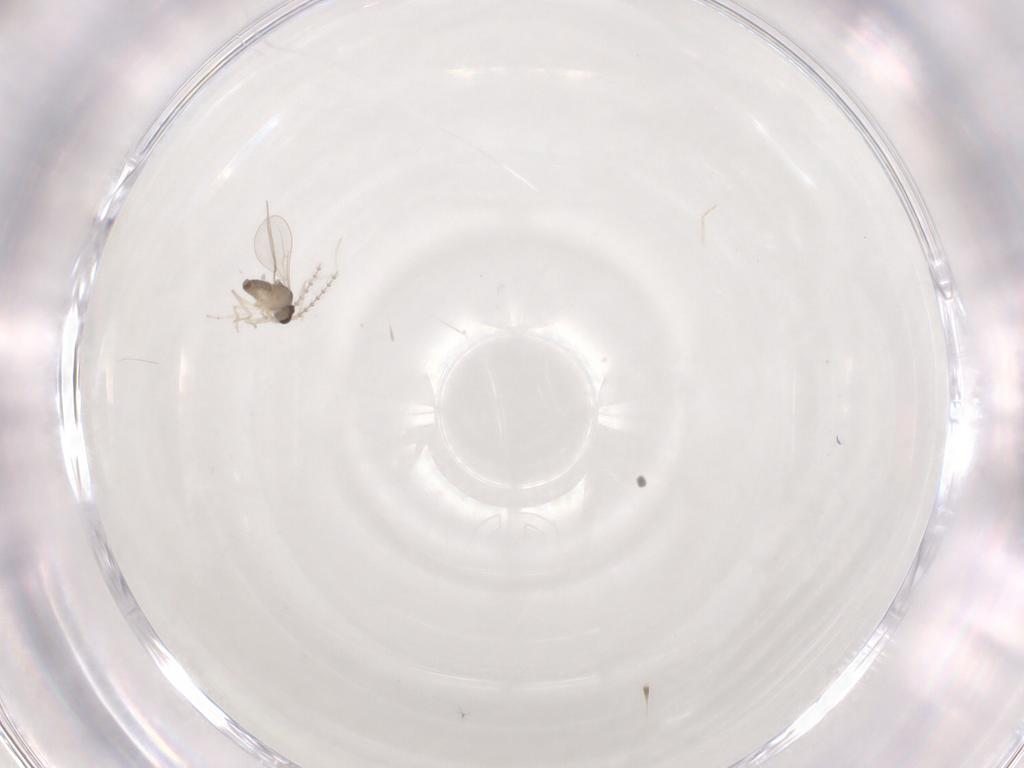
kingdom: Animalia
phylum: Arthropoda
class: Insecta
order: Diptera
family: Cecidomyiidae
